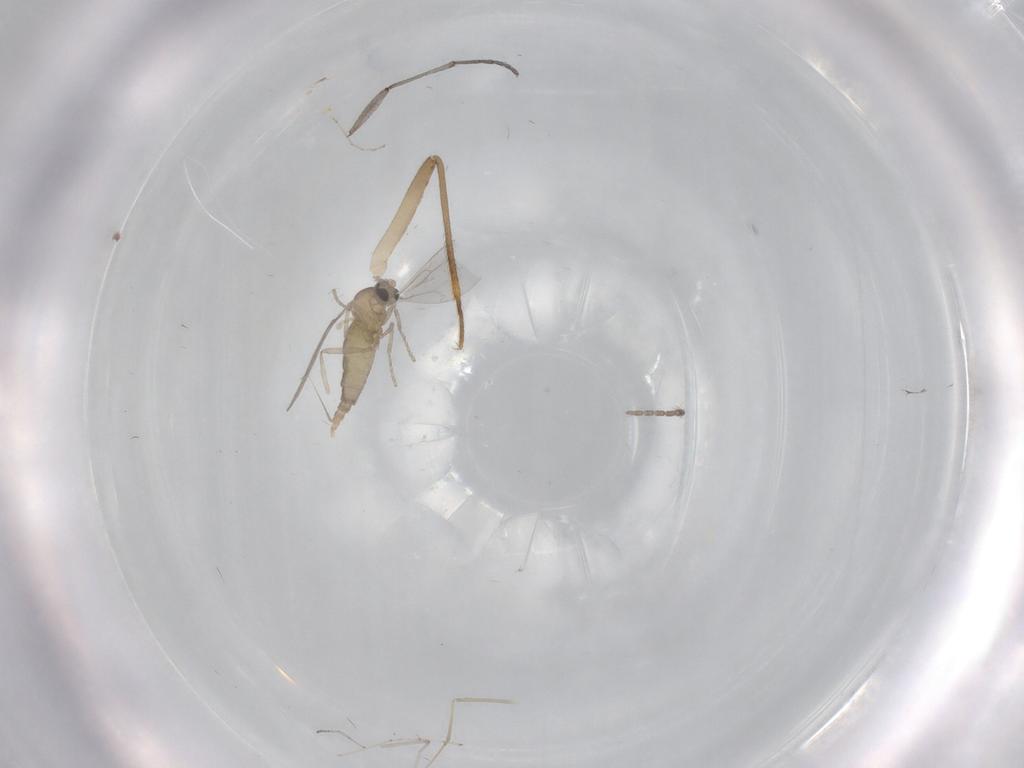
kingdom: Animalia
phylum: Arthropoda
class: Insecta
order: Diptera
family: Cecidomyiidae
